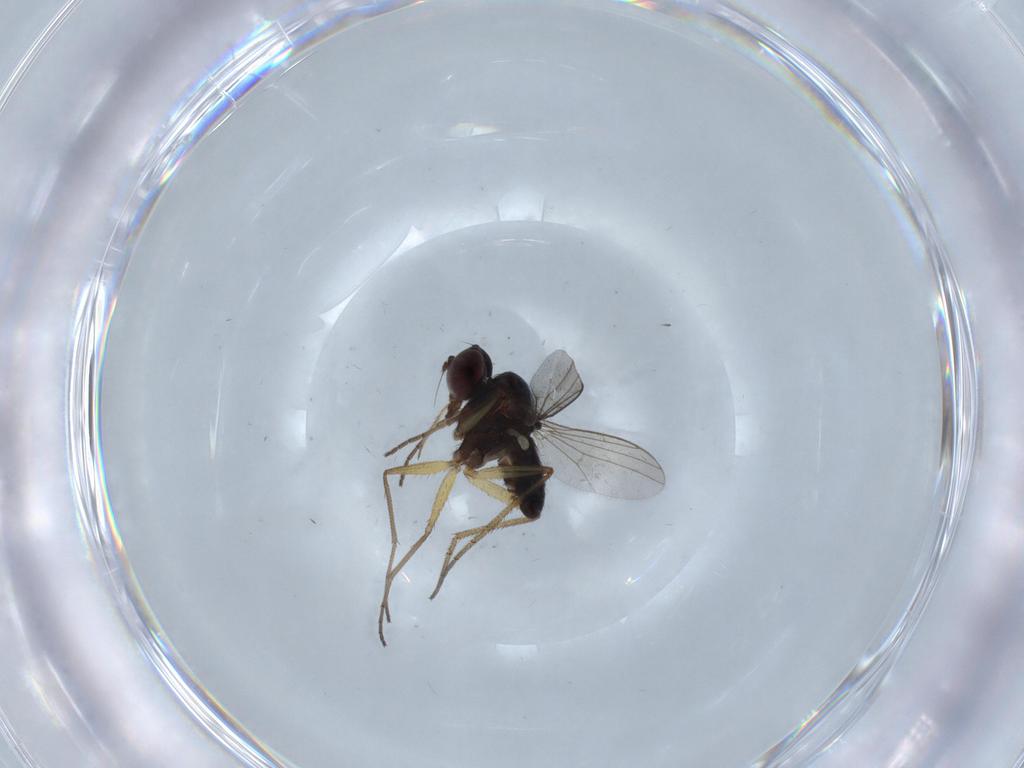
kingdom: Animalia
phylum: Arthropoda
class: Insecta
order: Diptera
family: Dolichopodidae
